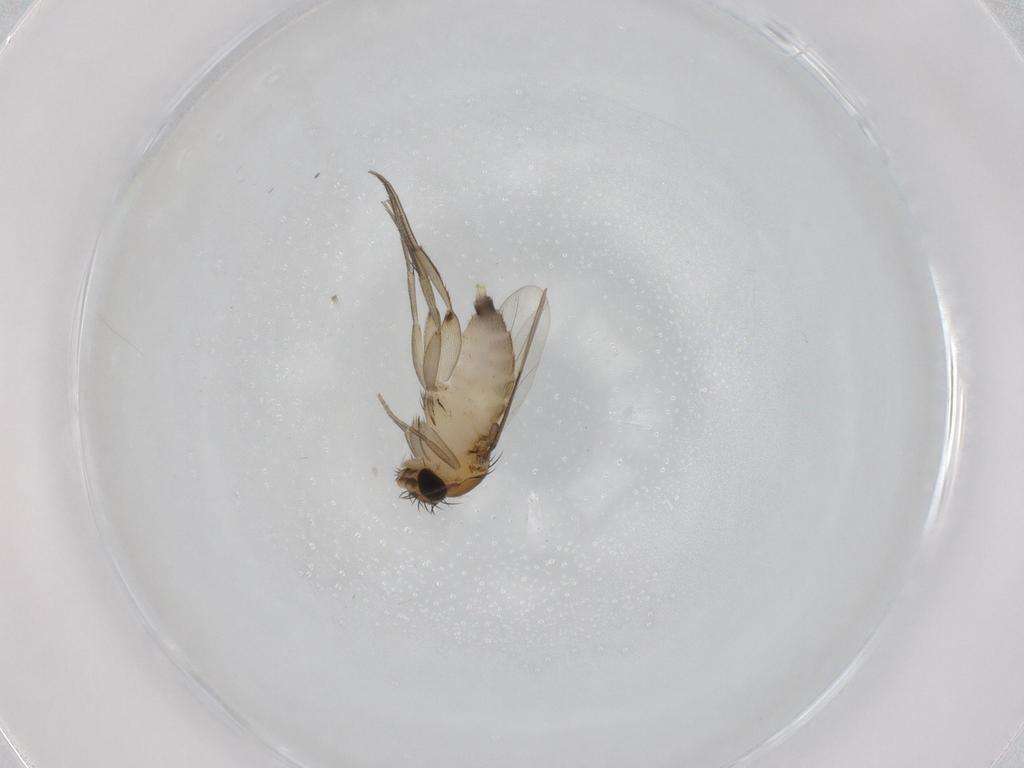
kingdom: Animalia
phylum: Arthropoda
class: Insecta
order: Diptera
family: Phoridae
